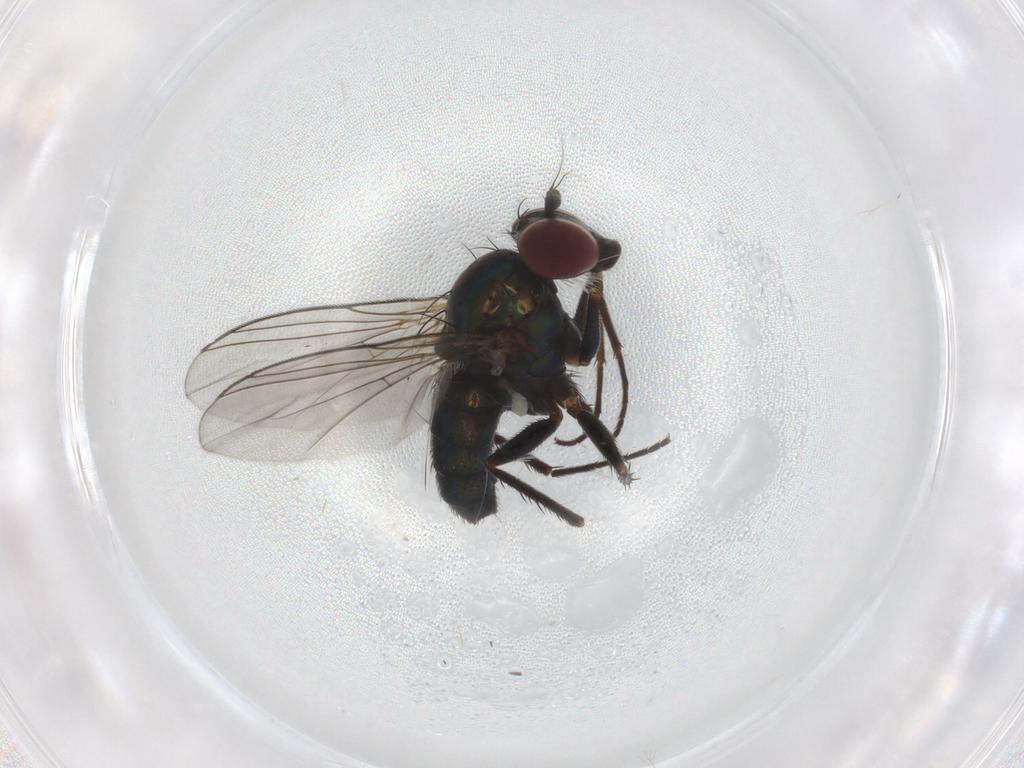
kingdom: Animalia
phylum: Arthropoda
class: Insecta
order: Diptera
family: Dolichopodidae
